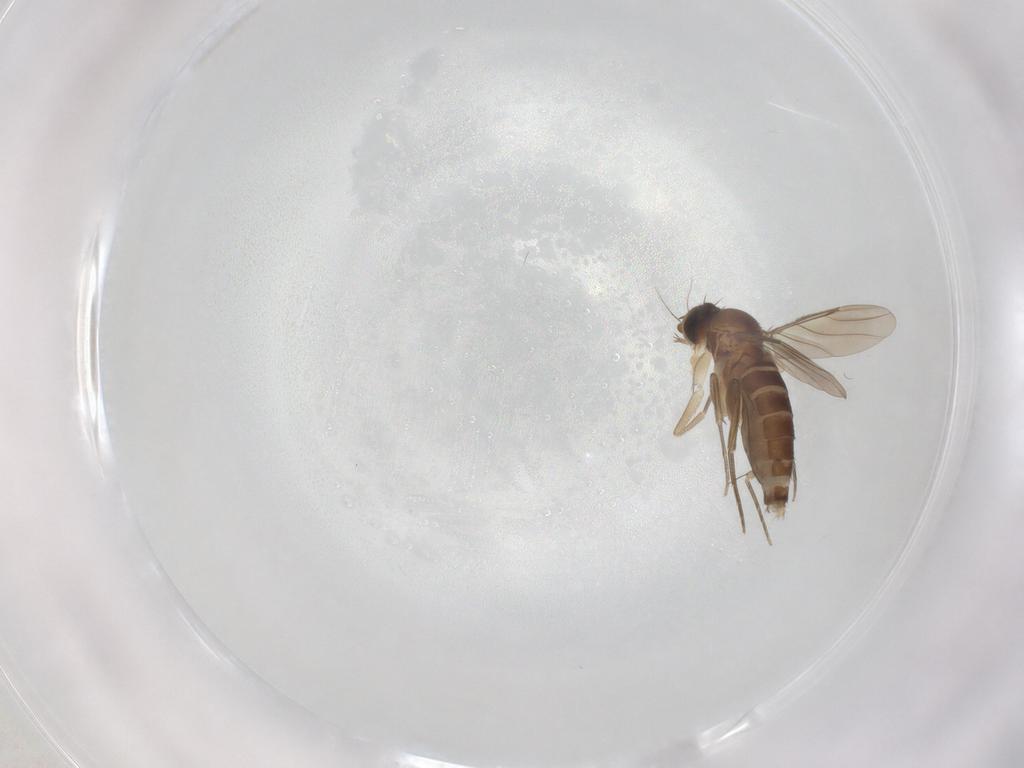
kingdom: Animalia
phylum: Arthropoda
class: Insecta
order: Diptera
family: Phoridae
